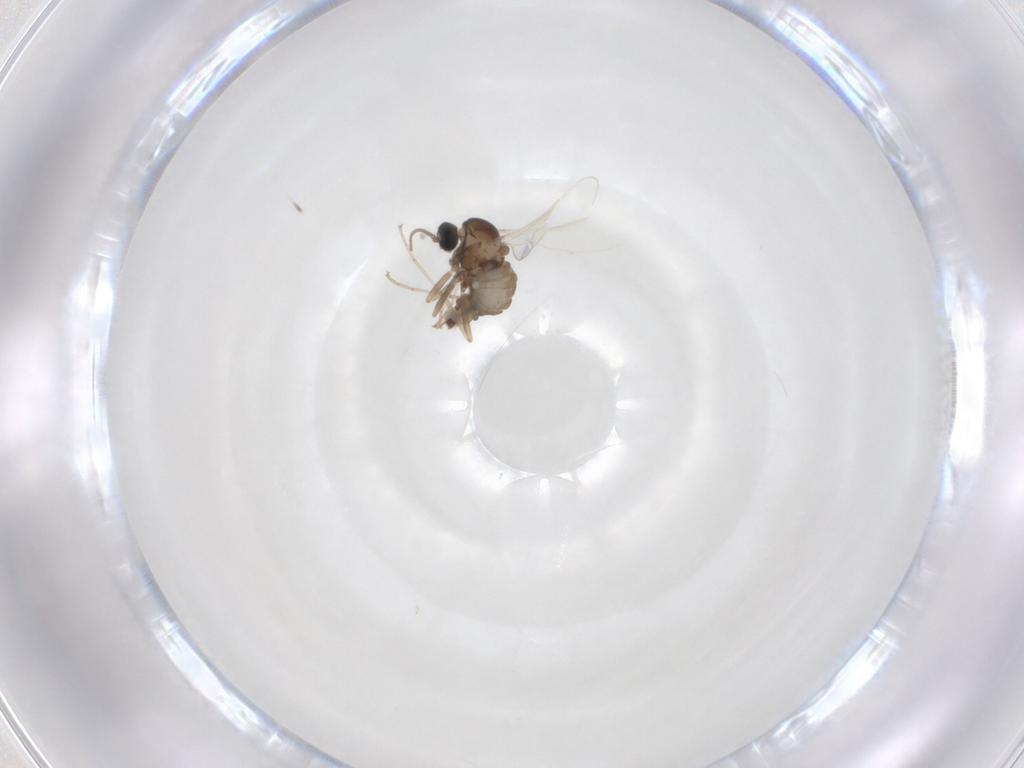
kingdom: Animalia
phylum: Arthropoda
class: Insecta
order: Diptera
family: Cecidomyiidae
